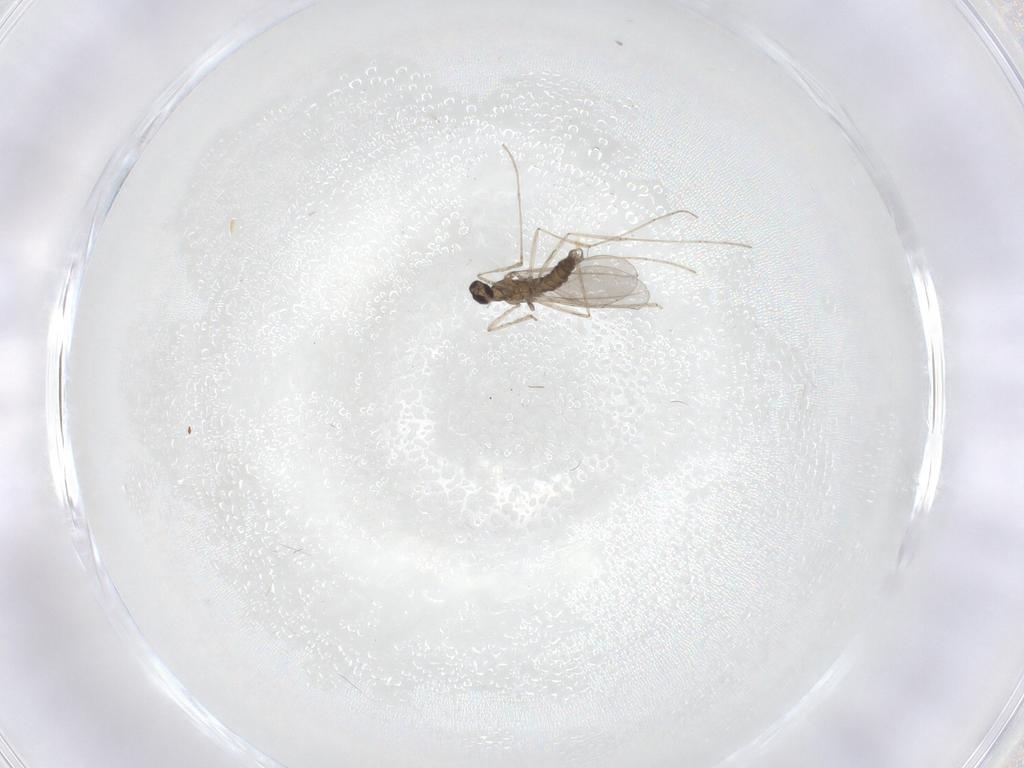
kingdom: Animalia
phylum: Arthropoda
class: Insecta
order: Diptera
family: Cecidomyiidae
